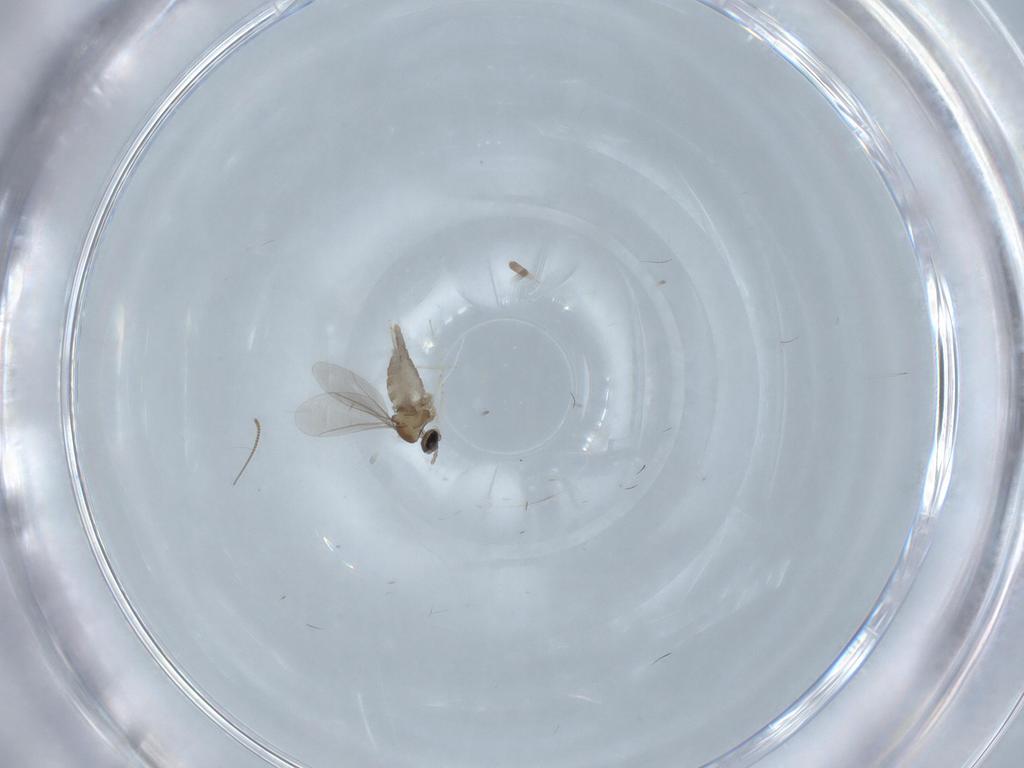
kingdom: Animalia
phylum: Arthropoda
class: Insecta
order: Diptera
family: Cecidomyiidae
